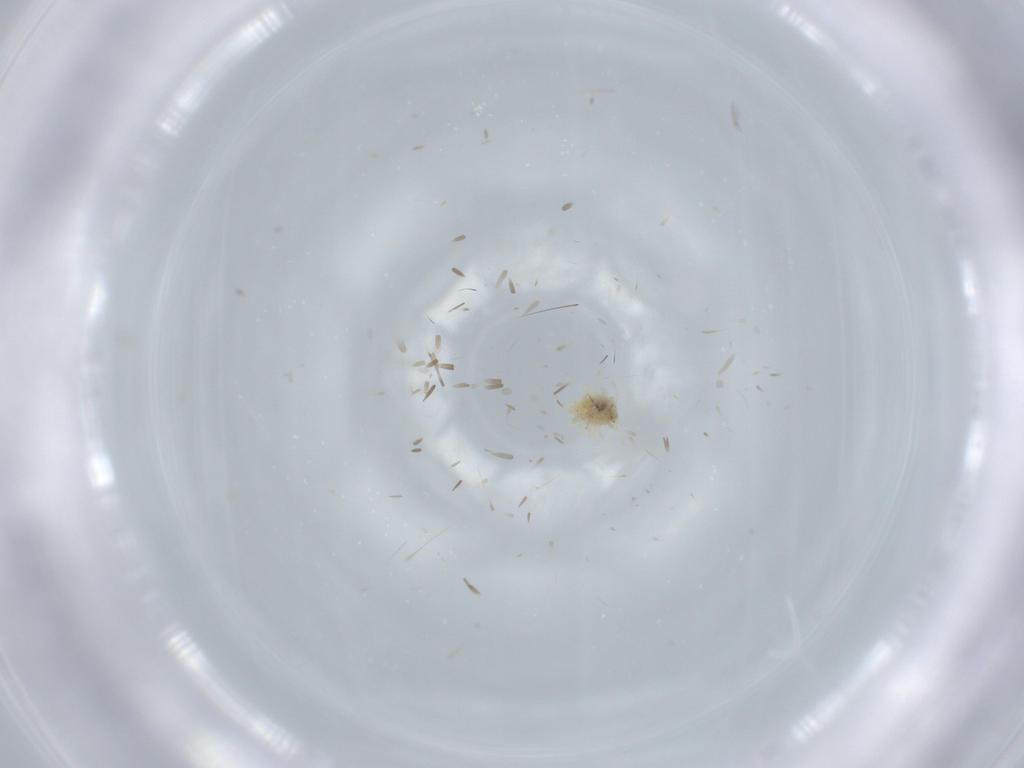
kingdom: Animalia
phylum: Arthropoda
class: Insecta
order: Neuroptera
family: Coniopterygidae
